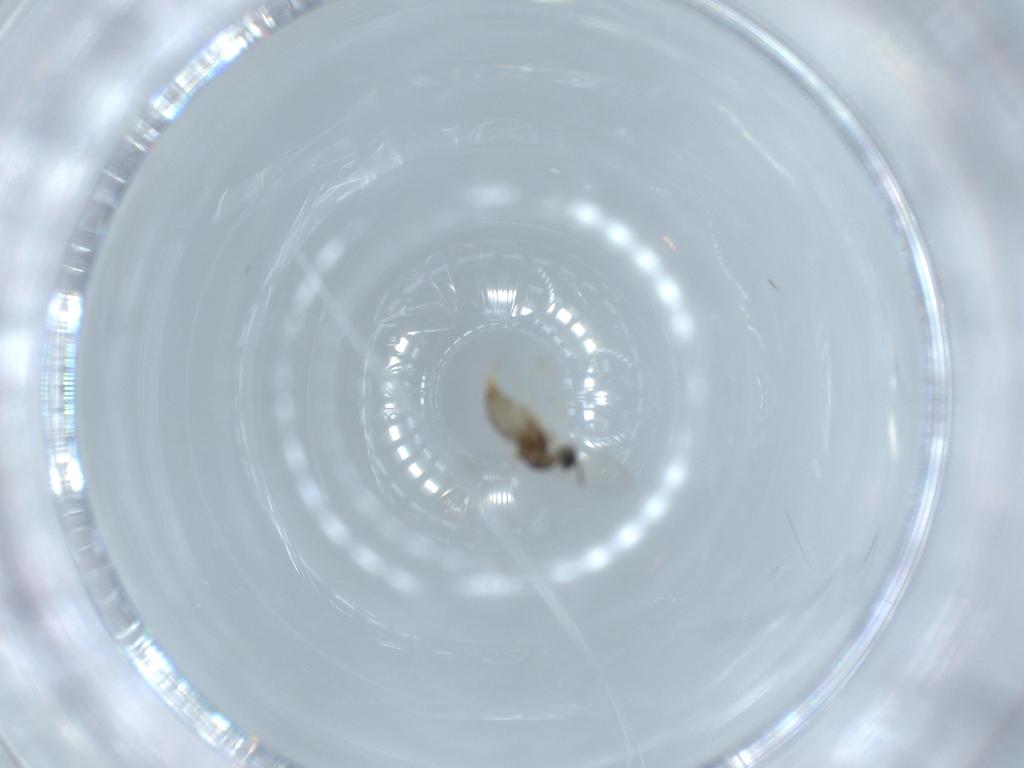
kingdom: Animalia
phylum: Arthropoda
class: Insecta
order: Diptera
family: Cecidomyiidae
